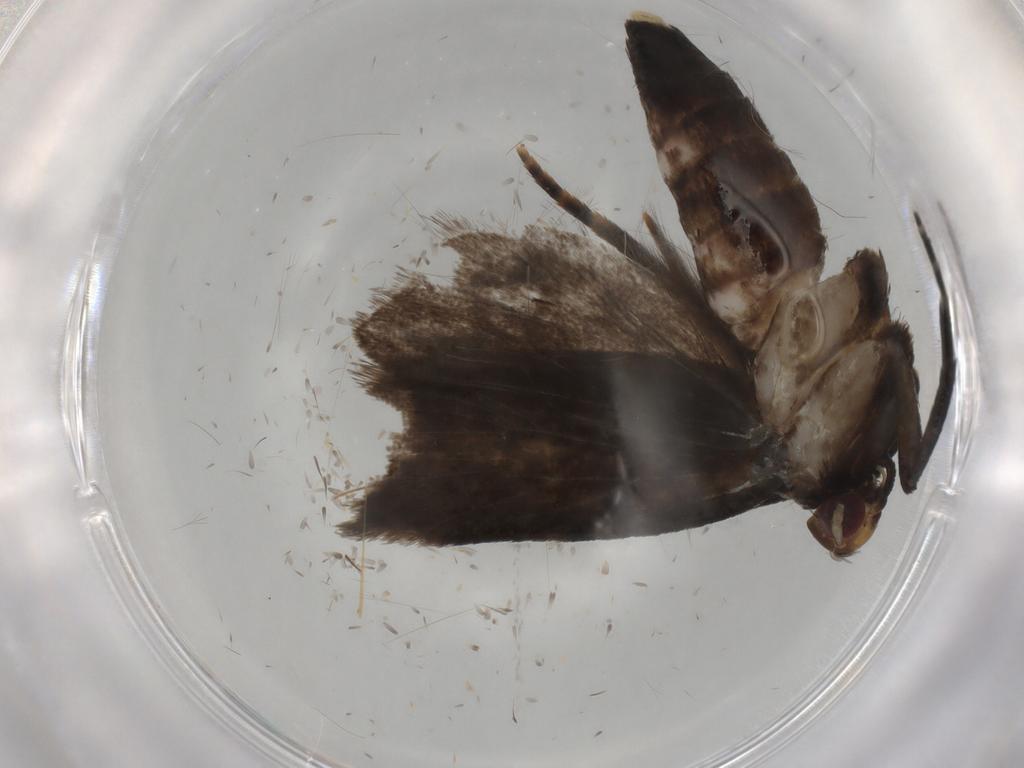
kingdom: Animalia
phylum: Arthropoda
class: Insecta
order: Lepidoptera
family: Gelechiidae
